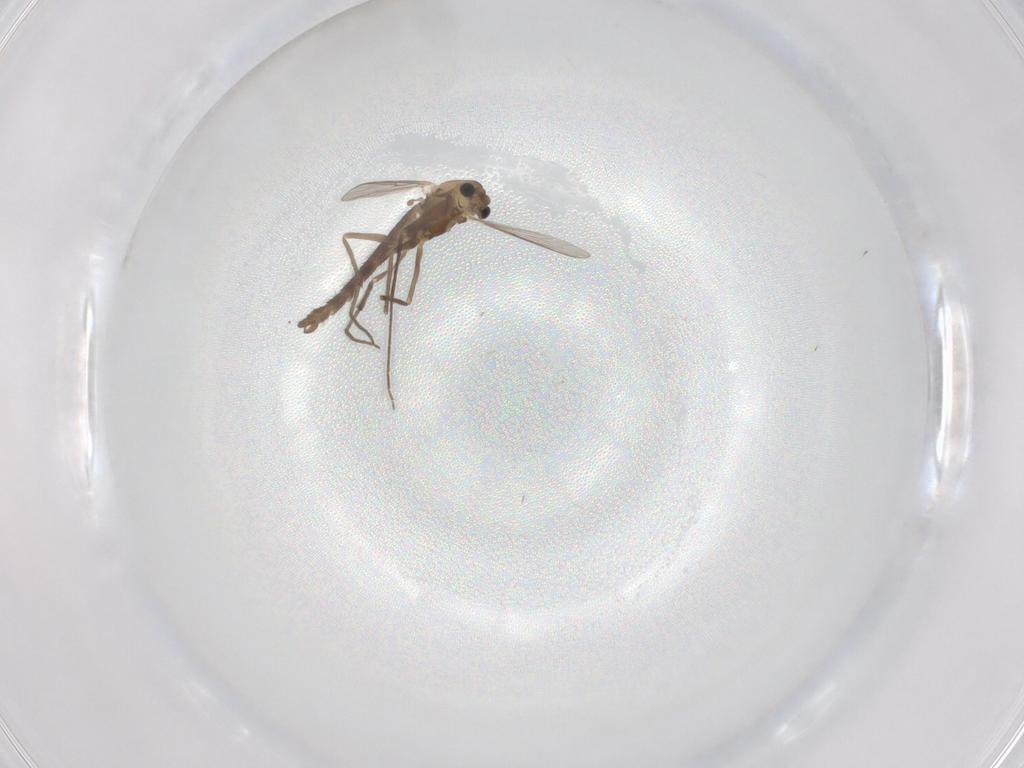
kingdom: Animalia
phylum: Arthropoda
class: Insecta
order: Diptera
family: Chironomidae
